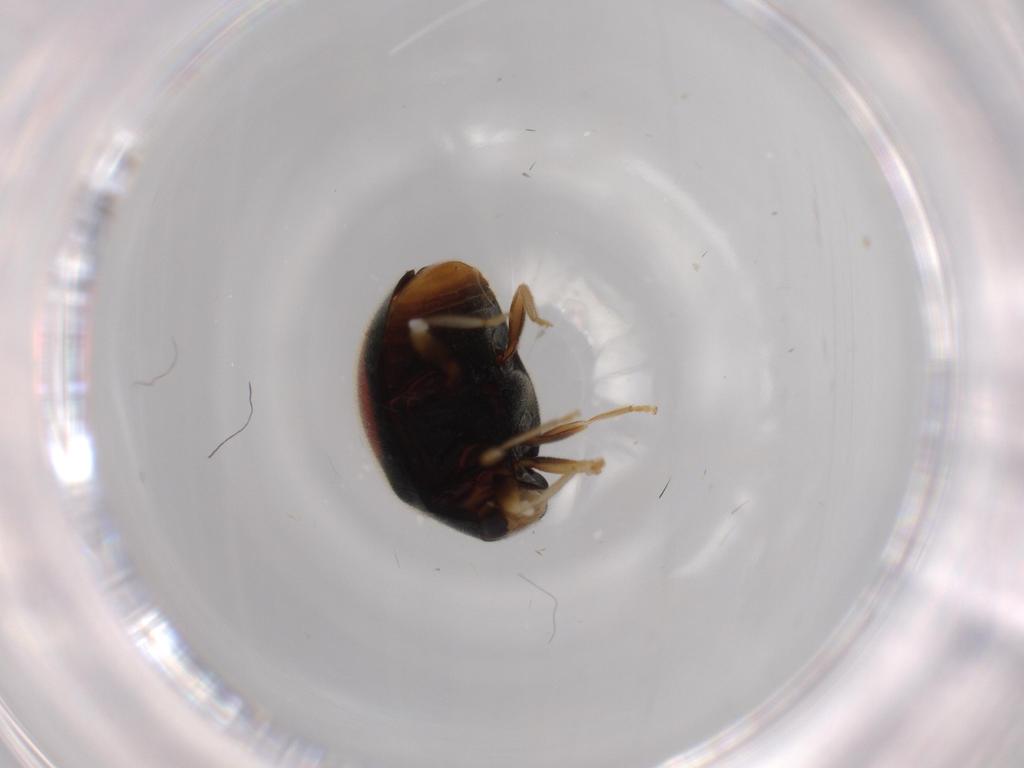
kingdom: Animalia
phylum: Arthropoda
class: Insecta
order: Coleoptera
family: Coccinellidae
